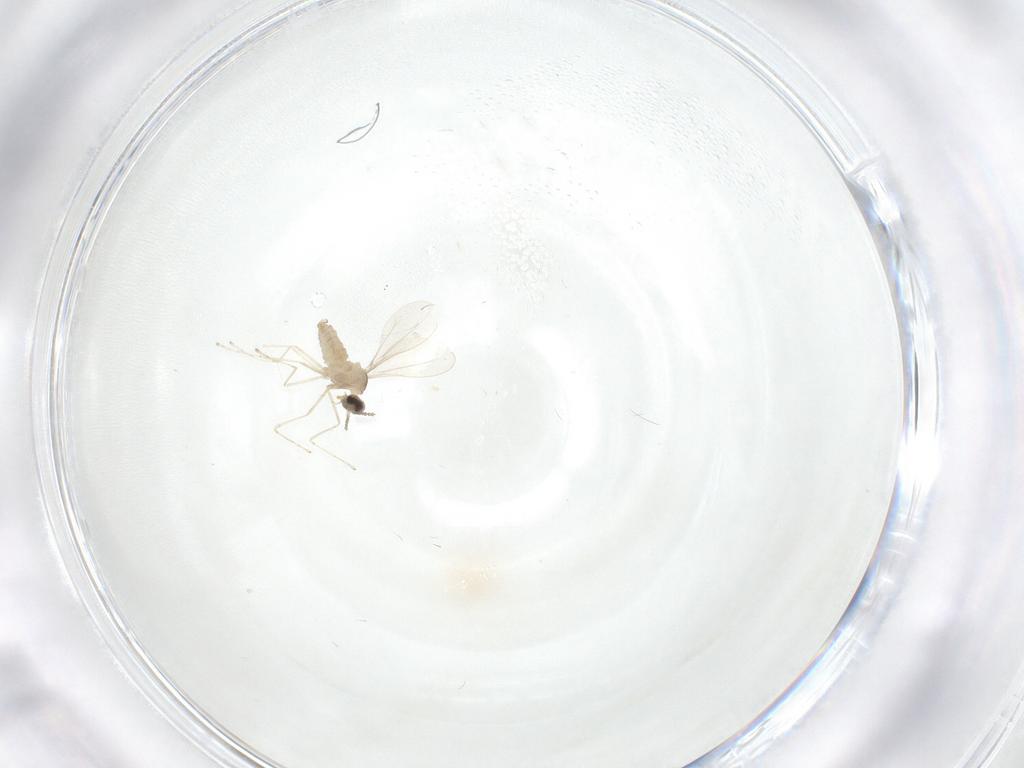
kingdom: Animalia
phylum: Arthropoda
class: Insecta
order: Diptera
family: Cecidomyiidae
